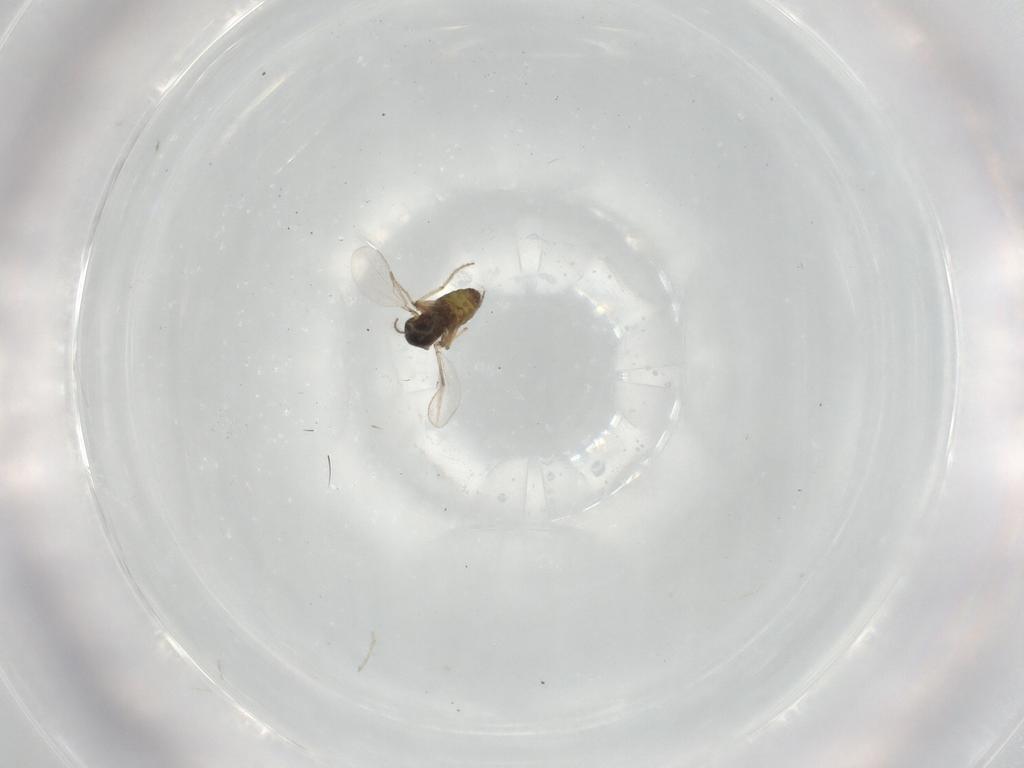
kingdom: Animalia
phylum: Arthropoda
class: Insecta
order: Diptera
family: Ceratopogonidae
